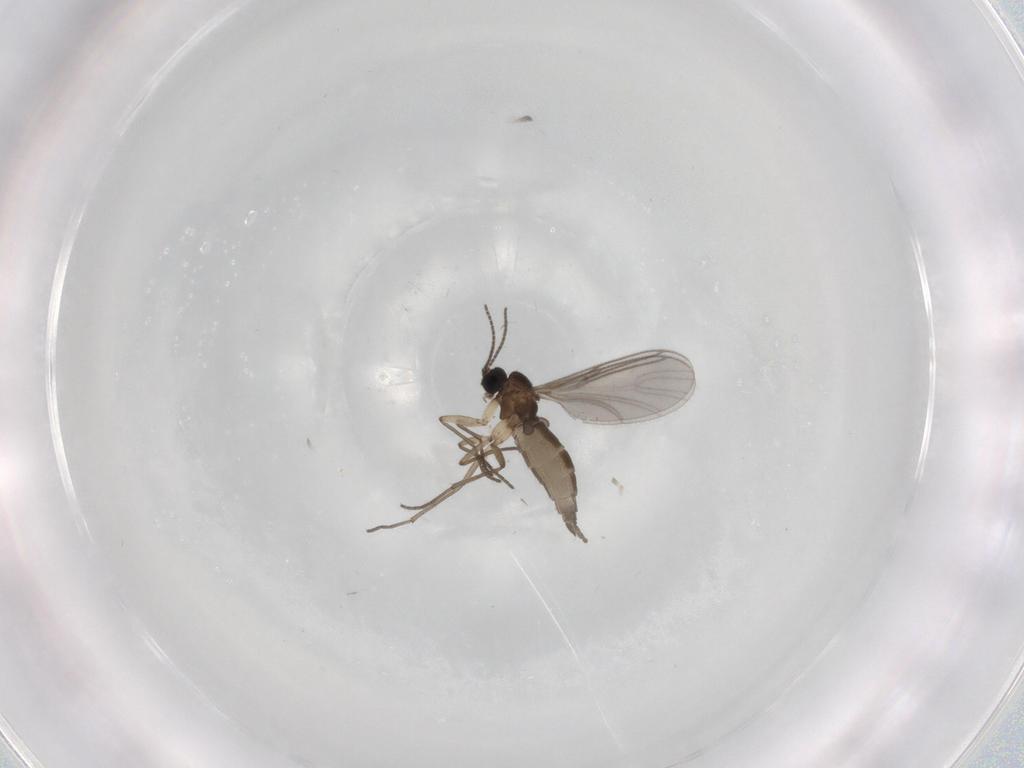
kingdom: Animalia
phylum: Arthropoda
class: Insecta
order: Diptera
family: Sciaridae
